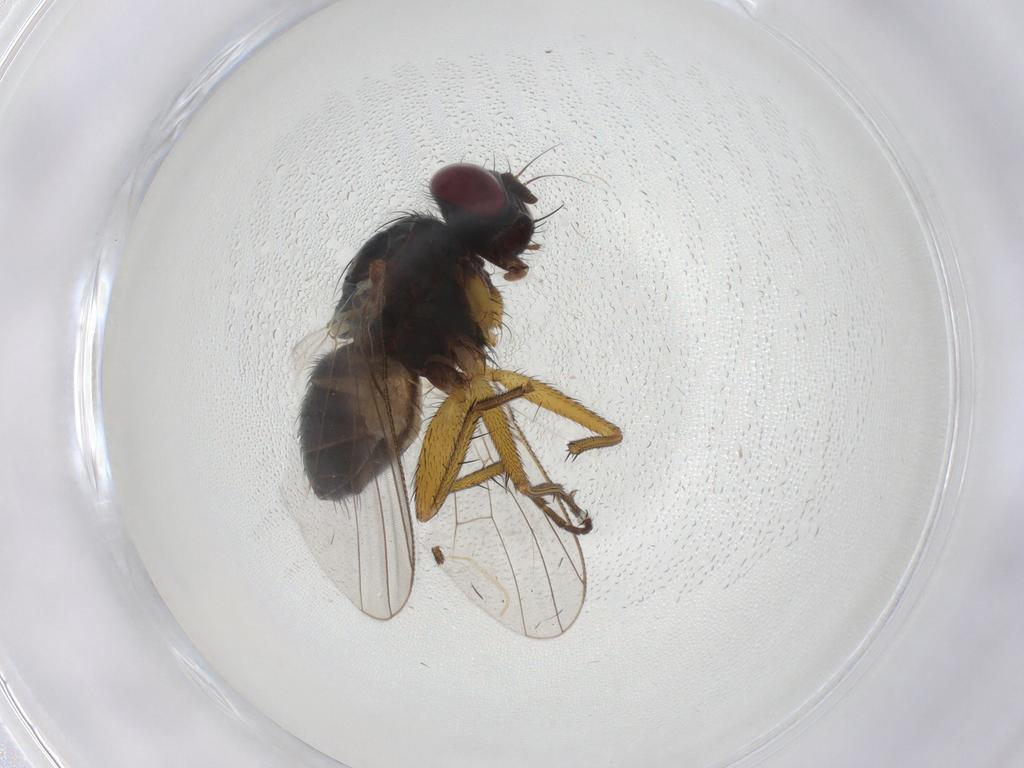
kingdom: Animalia
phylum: Arthropoda
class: Insecta
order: Diptera
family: Muscidae
